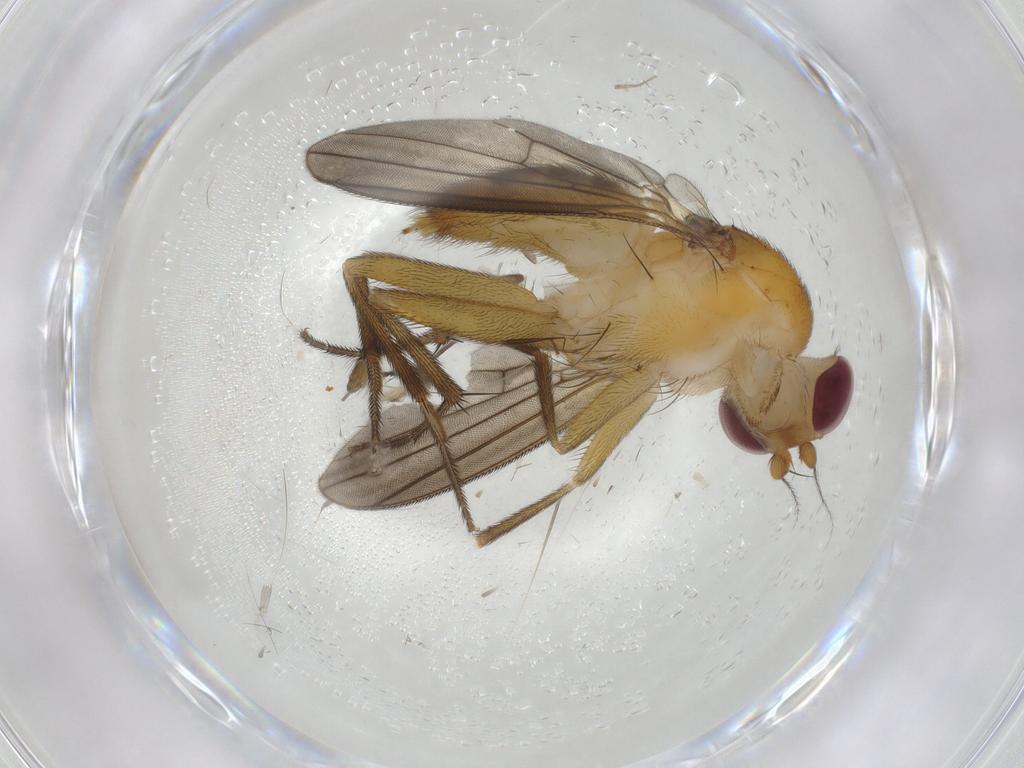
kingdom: Animalia
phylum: Arthropoda
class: Insecta
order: Diptera
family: Clusiidae
